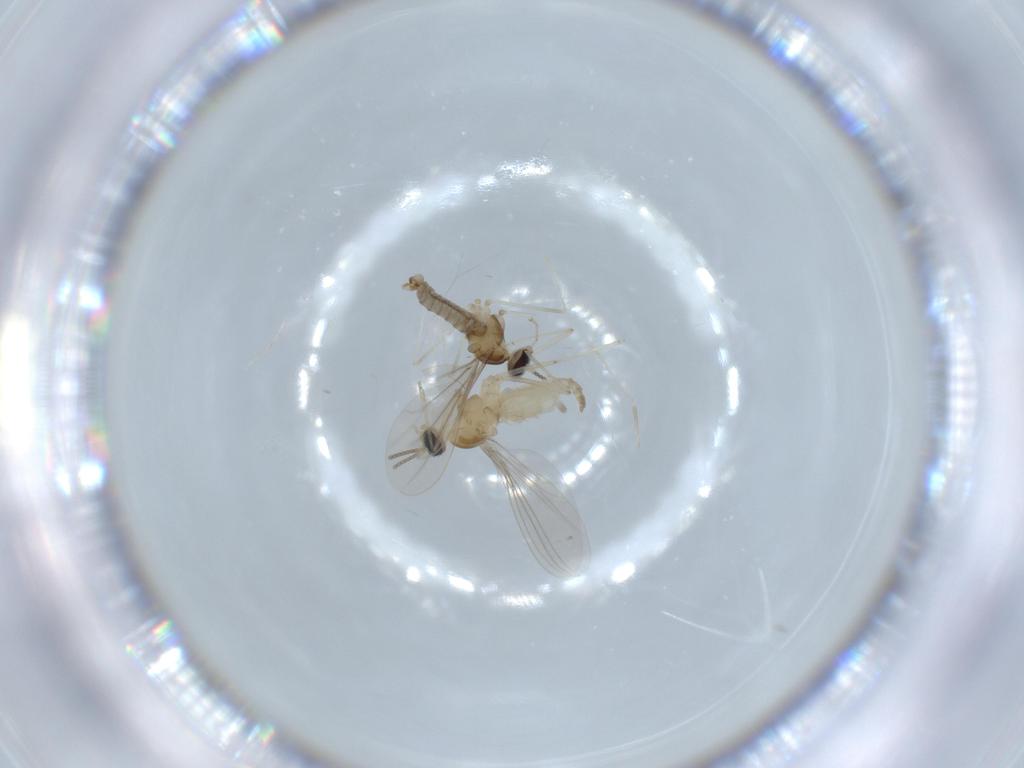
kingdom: Animalia
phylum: Arthropoda
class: Insecta
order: Diptera
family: Cecidomyiidae
